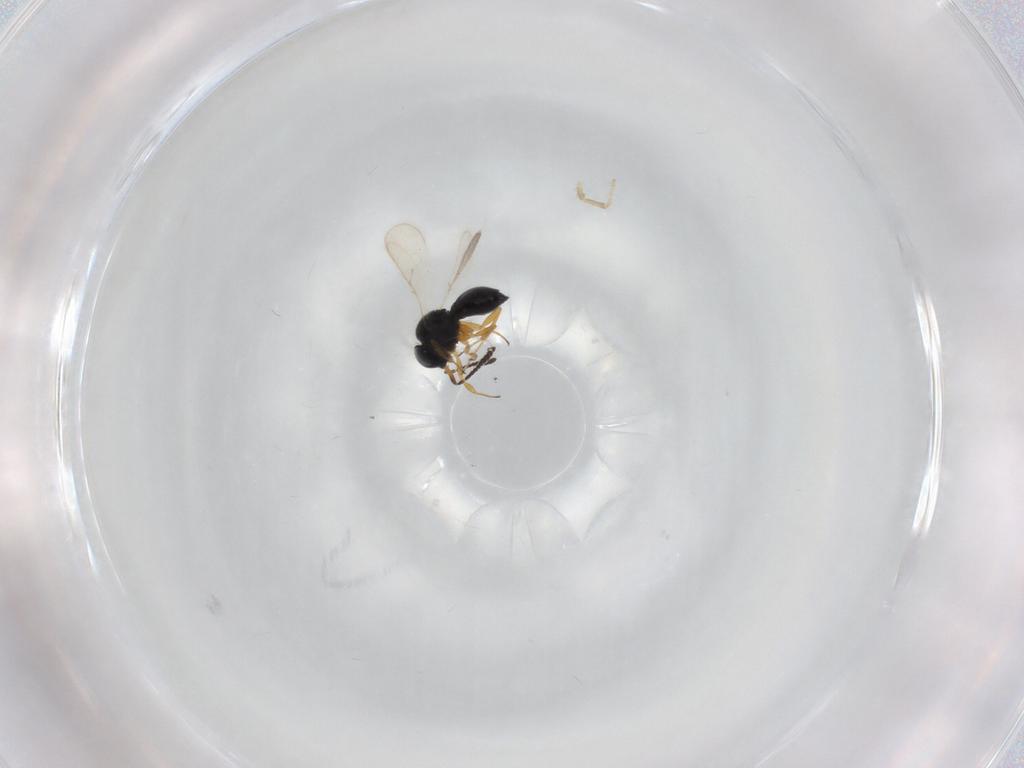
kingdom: Animalia
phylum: Arthropoda
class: Insecta
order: Hymenoptera
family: Scelionidae
